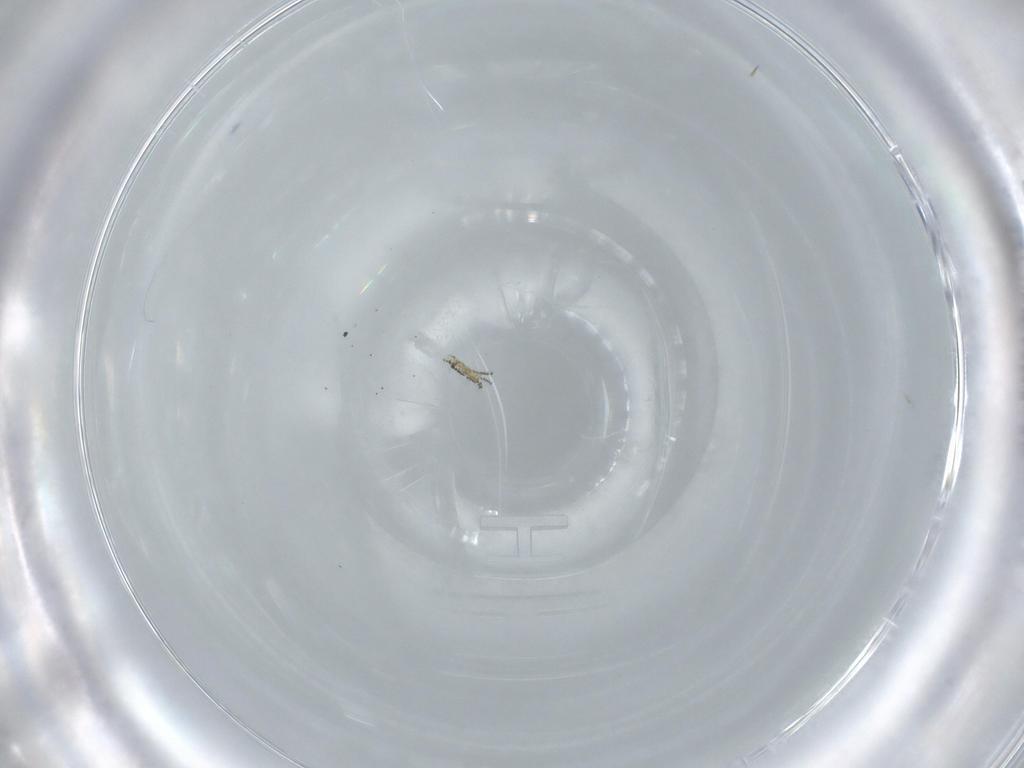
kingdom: Animalia
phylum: Arthropoda
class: Insecta
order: Diptera
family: Chironomidae
